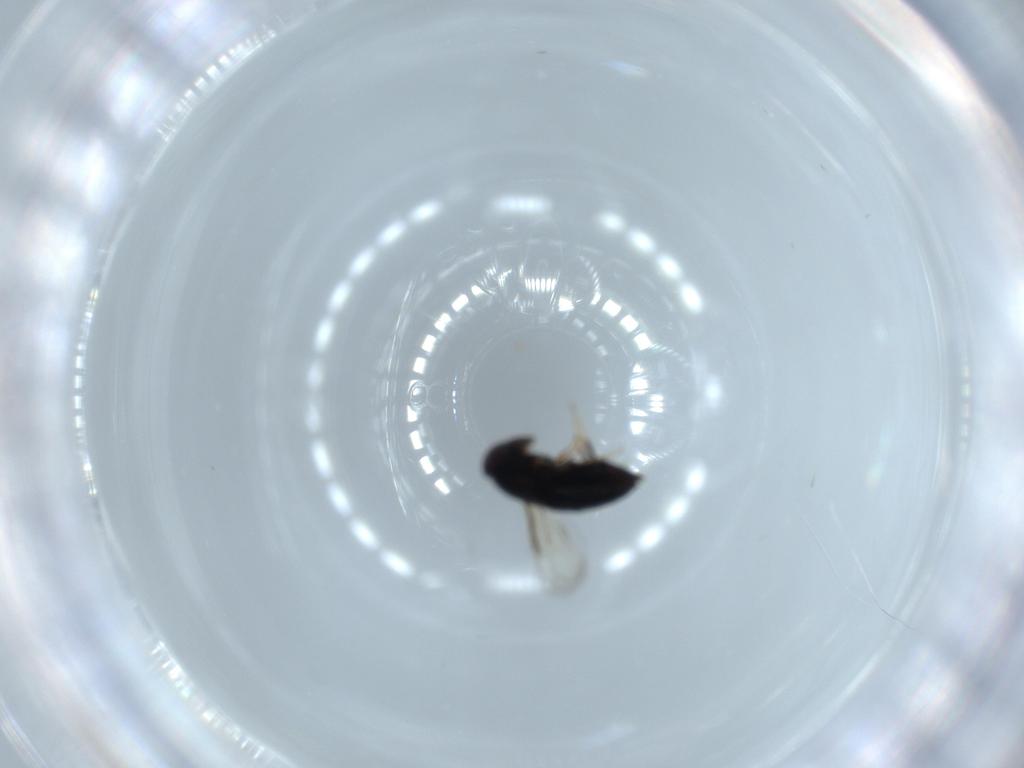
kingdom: Animalia
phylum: Arthropoda
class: Insecta
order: Hymenoptera
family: Signiphoridae
